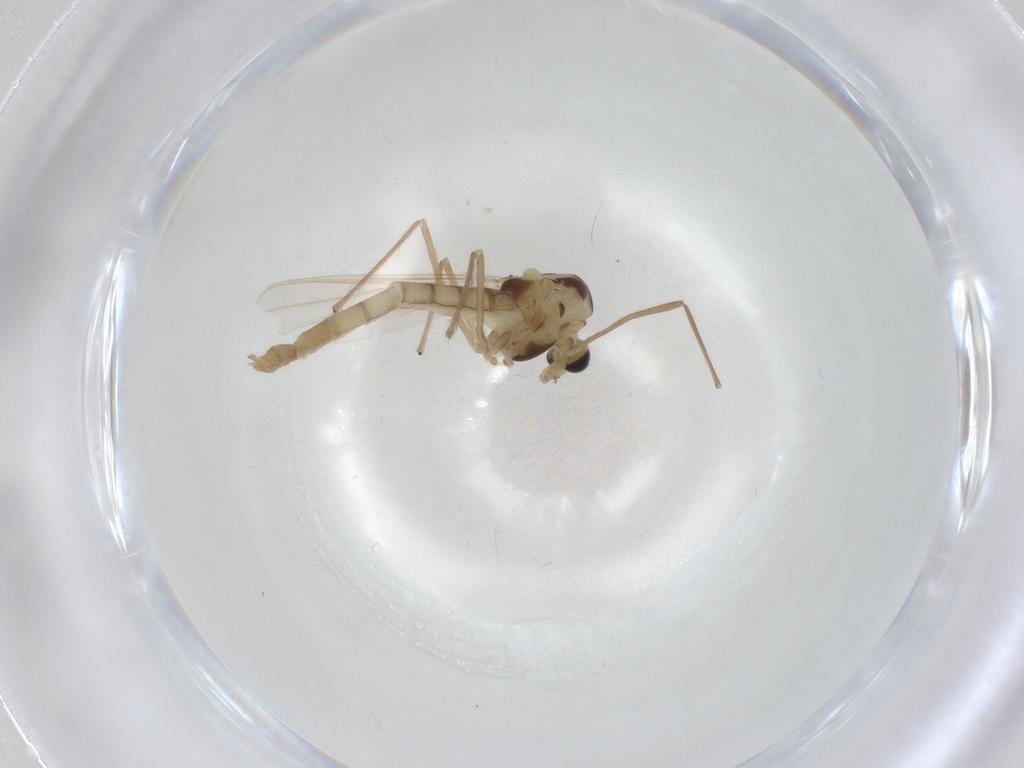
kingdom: Animalia
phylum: Arthropoda
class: Insecta
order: Diptera
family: Chironomidae
